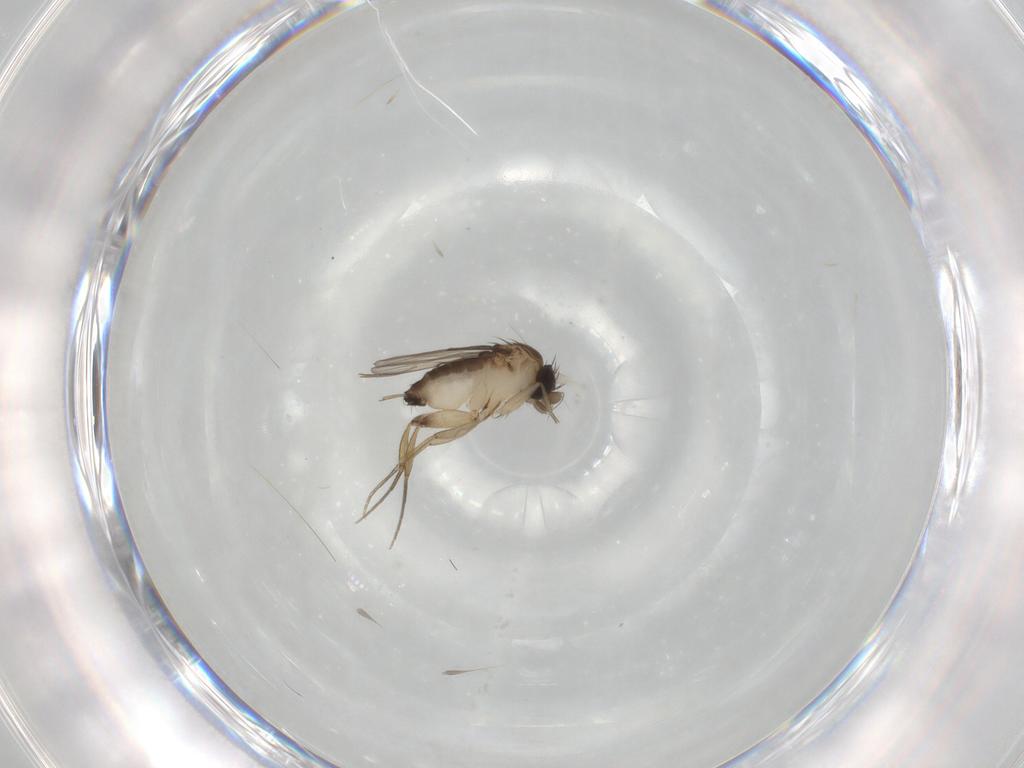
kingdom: Animalia
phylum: Arthropoda
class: Insecta
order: Diptera
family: Phoridae
